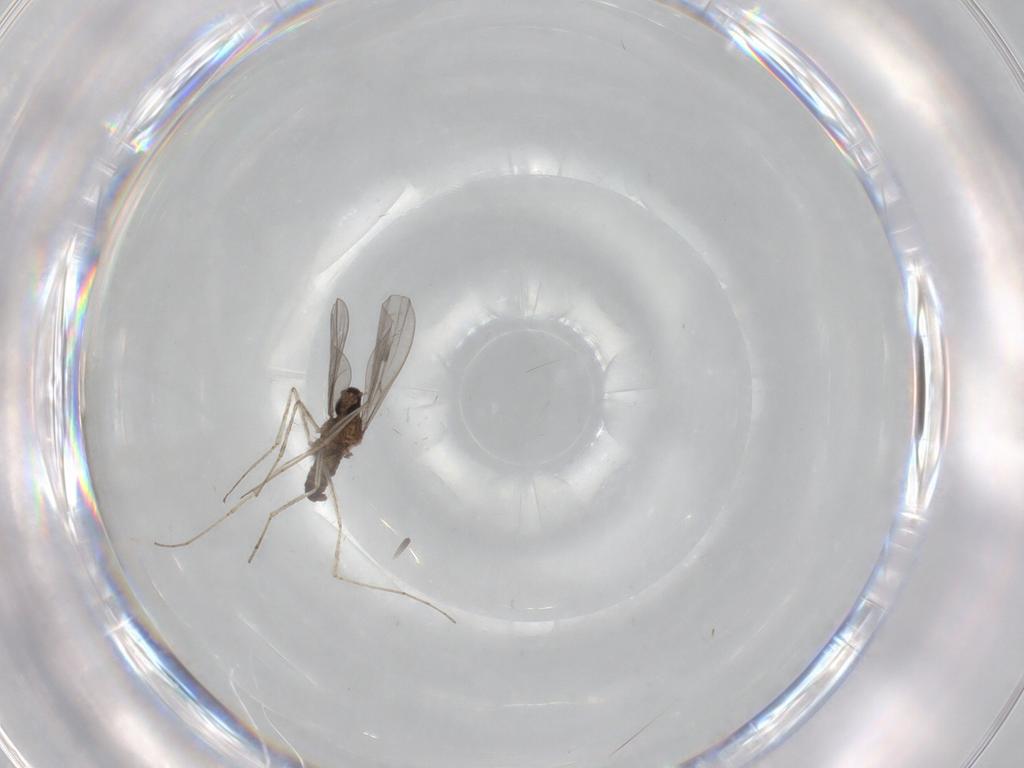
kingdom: Animalia
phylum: Arthropoda
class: Insecta
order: Diptera
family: Cecidomyiidae
